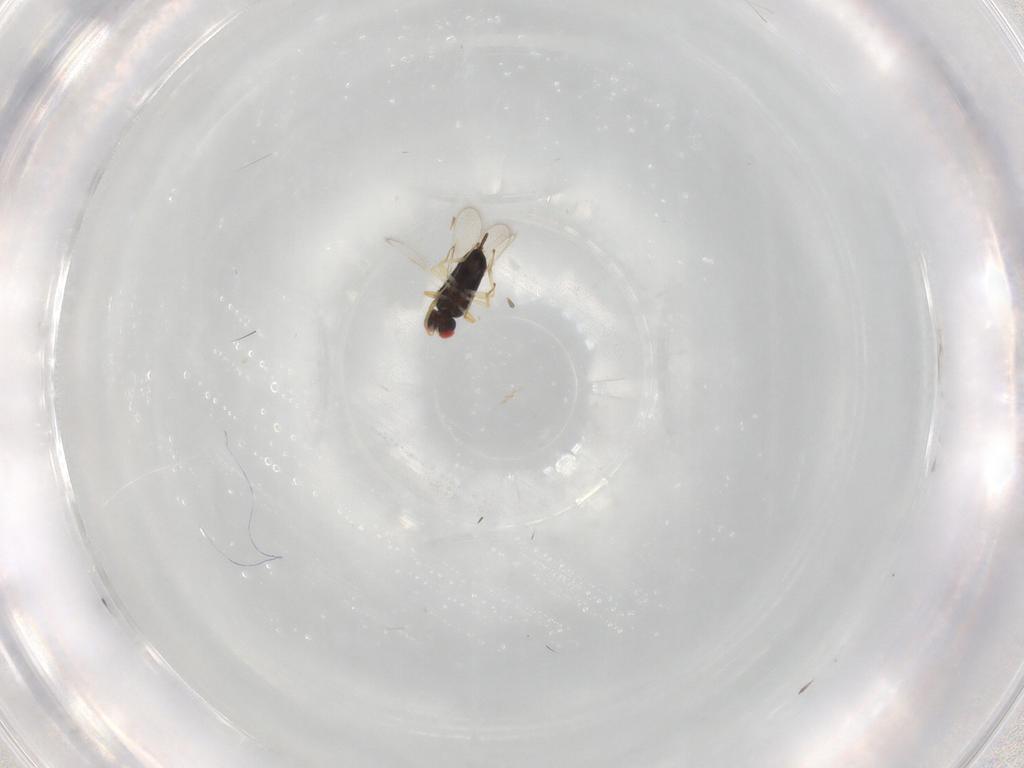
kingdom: Animalia
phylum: Arthropoda
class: Insecta
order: Hymenoptera
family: Azotidae
